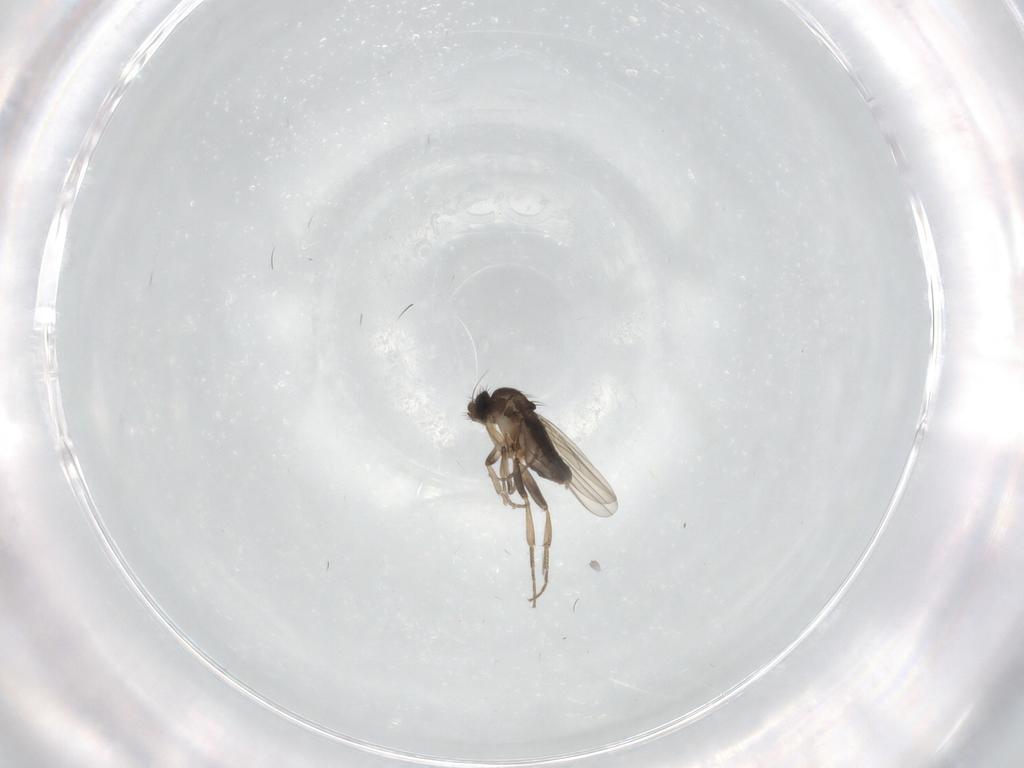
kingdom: Animalia
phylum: Arthropoda
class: Insecta
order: Diptera
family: Phoridae
